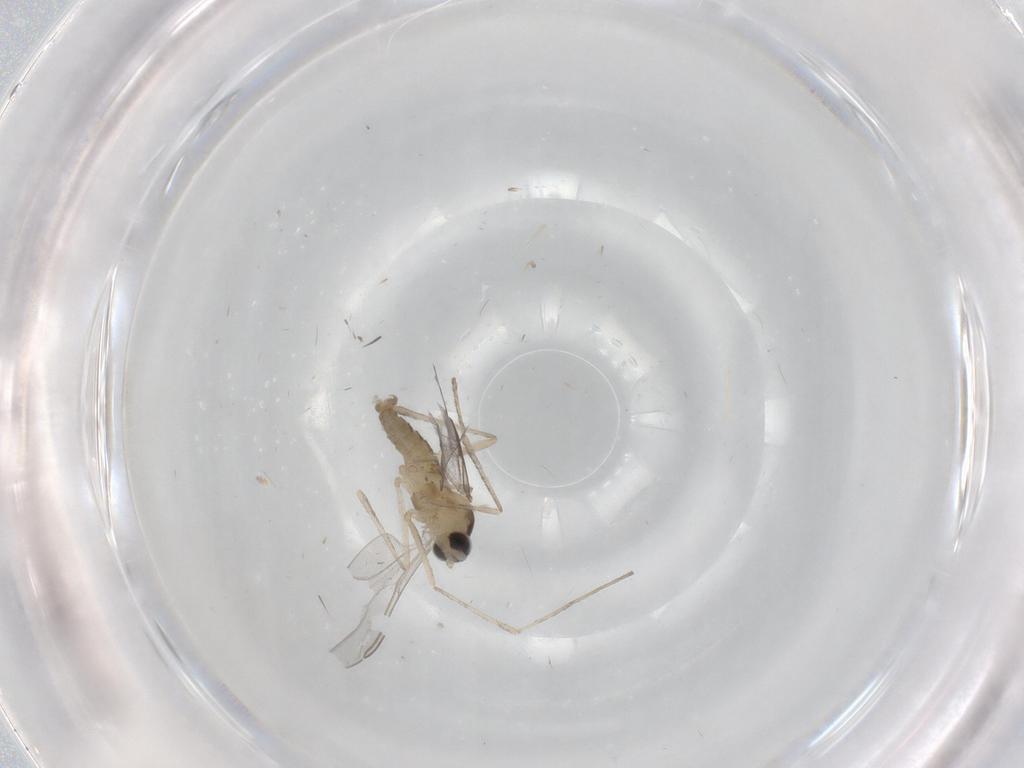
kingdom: Animalia
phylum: Arthropoda
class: Insecta
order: Diptera
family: Cecidomyiidae
